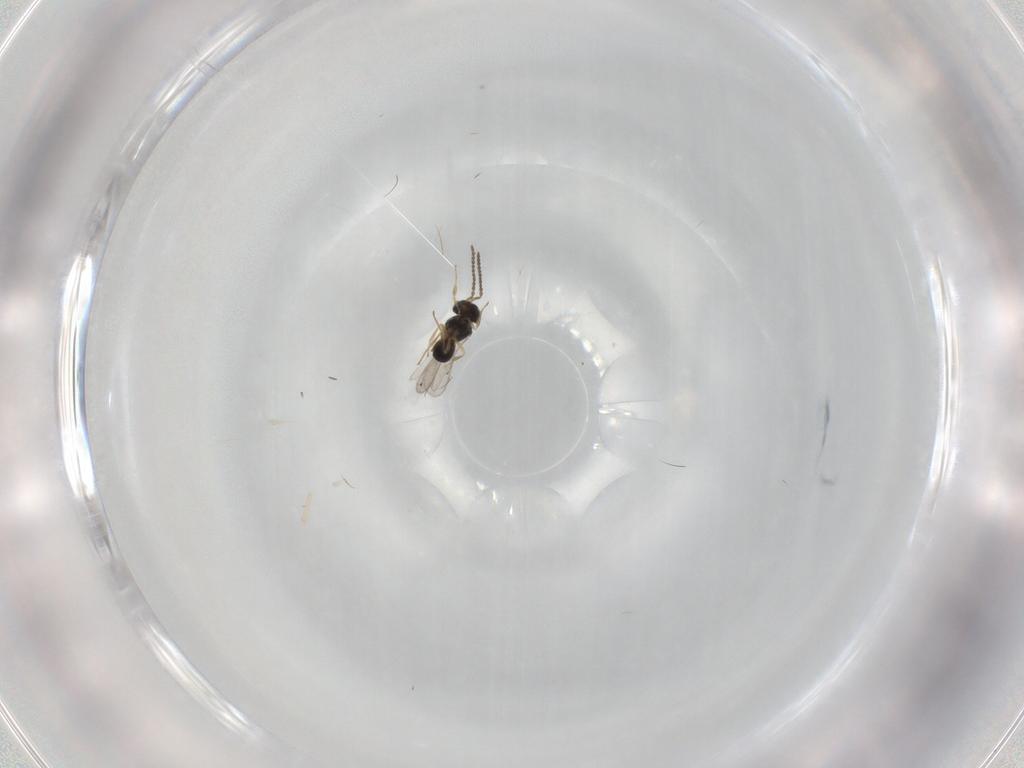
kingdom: Animalia
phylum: Arthropoda
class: Insecta
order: Hymenoptera
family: Scelionidae
